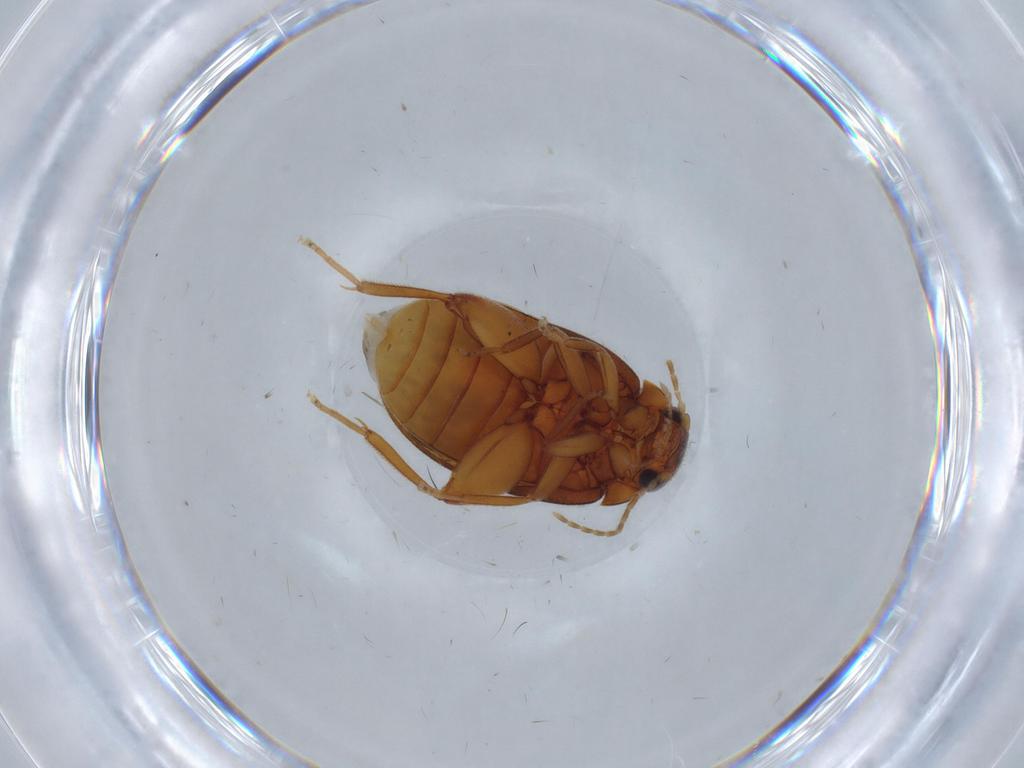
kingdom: Animalia
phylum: Arthropoda
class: Insecta
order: Coleoptera
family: Scirtidae
